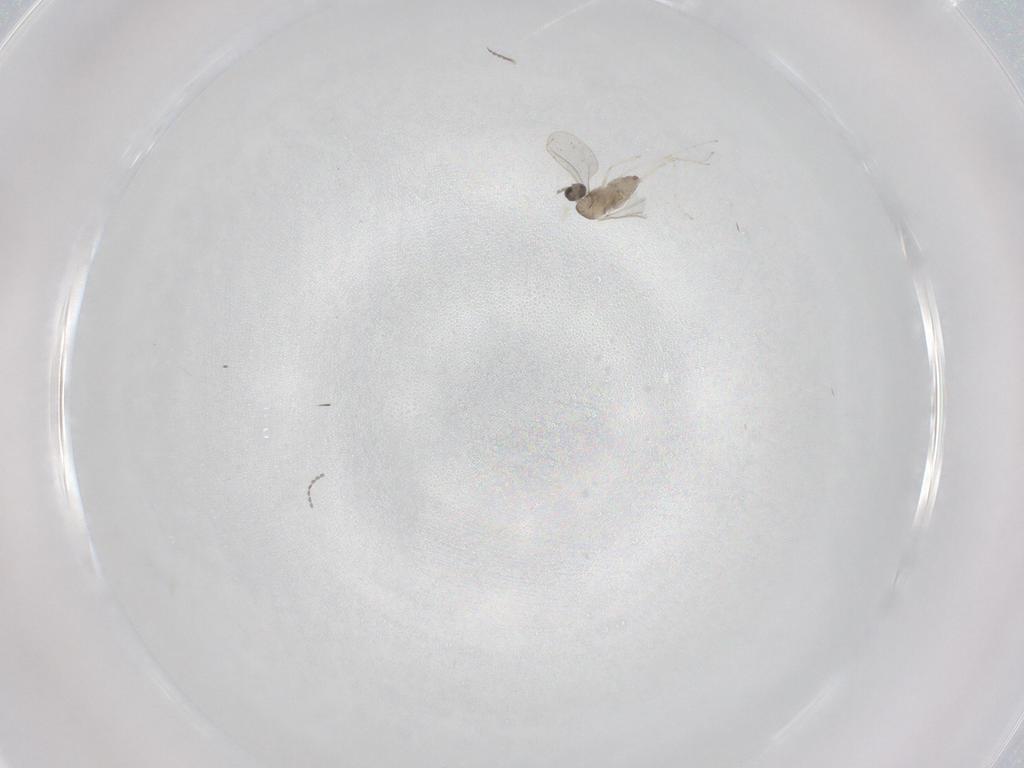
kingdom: Animalia
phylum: Arthropoda
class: Insecta
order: Diptera
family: Cecidomyiidae
